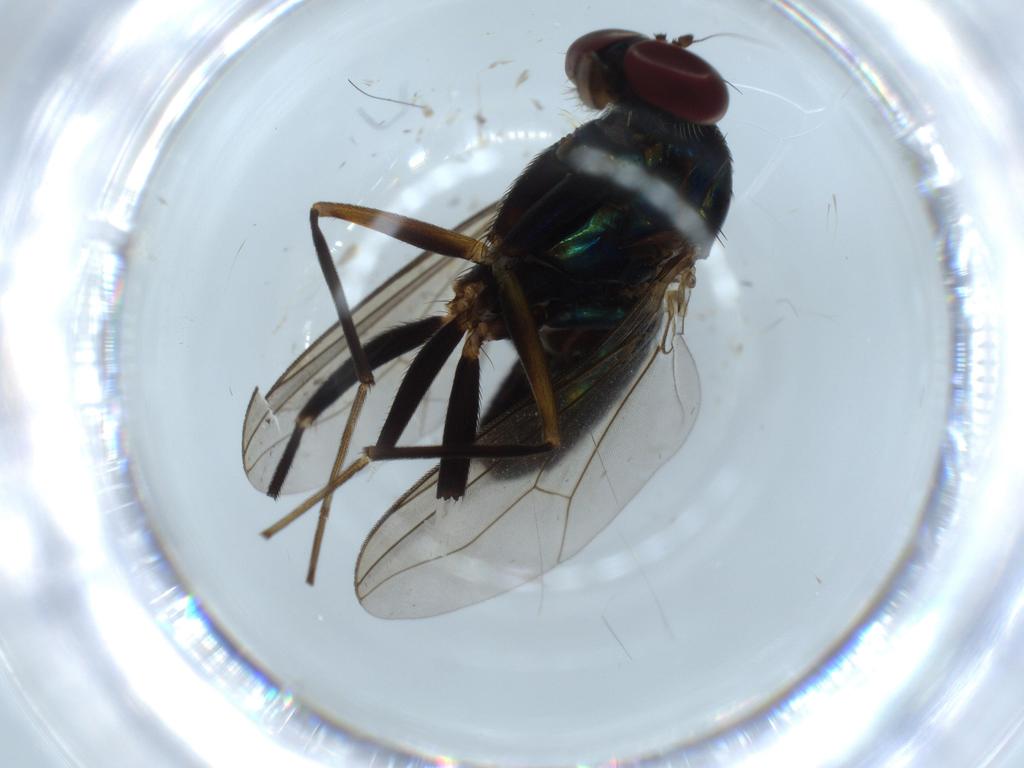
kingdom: Animalia
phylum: Arthropoda
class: Insecta
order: Diptera
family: Dolichopodidae
